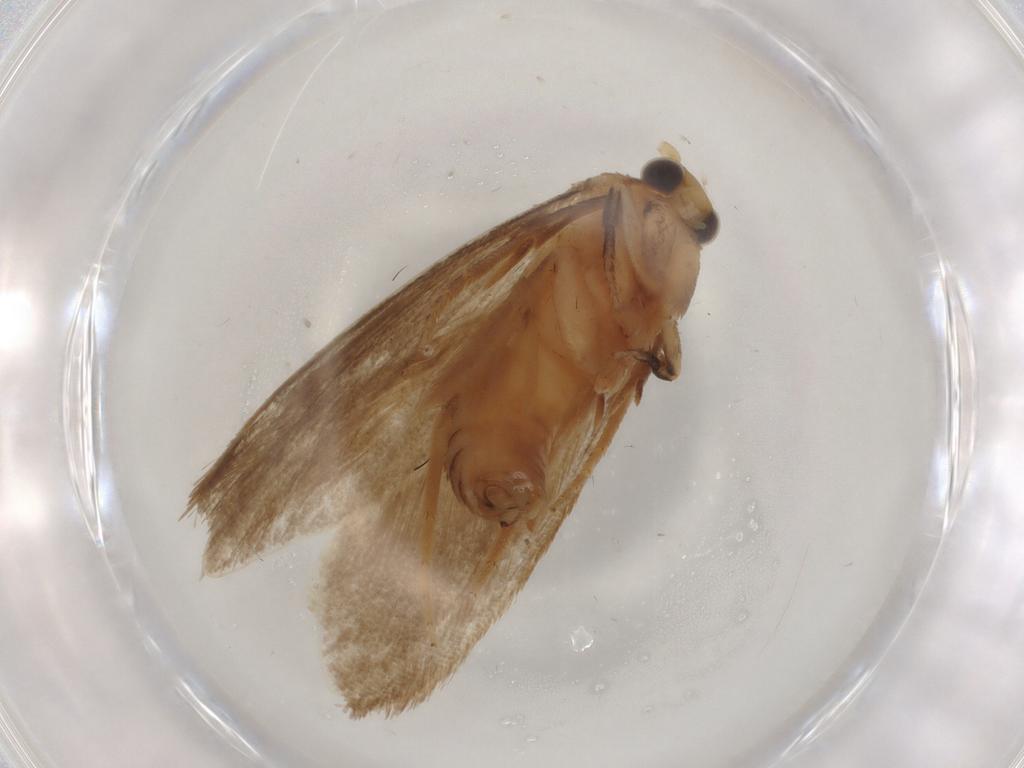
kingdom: Animalia
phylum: Arthropoda
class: Insecta
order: Lepidoptera
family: Tineidae
